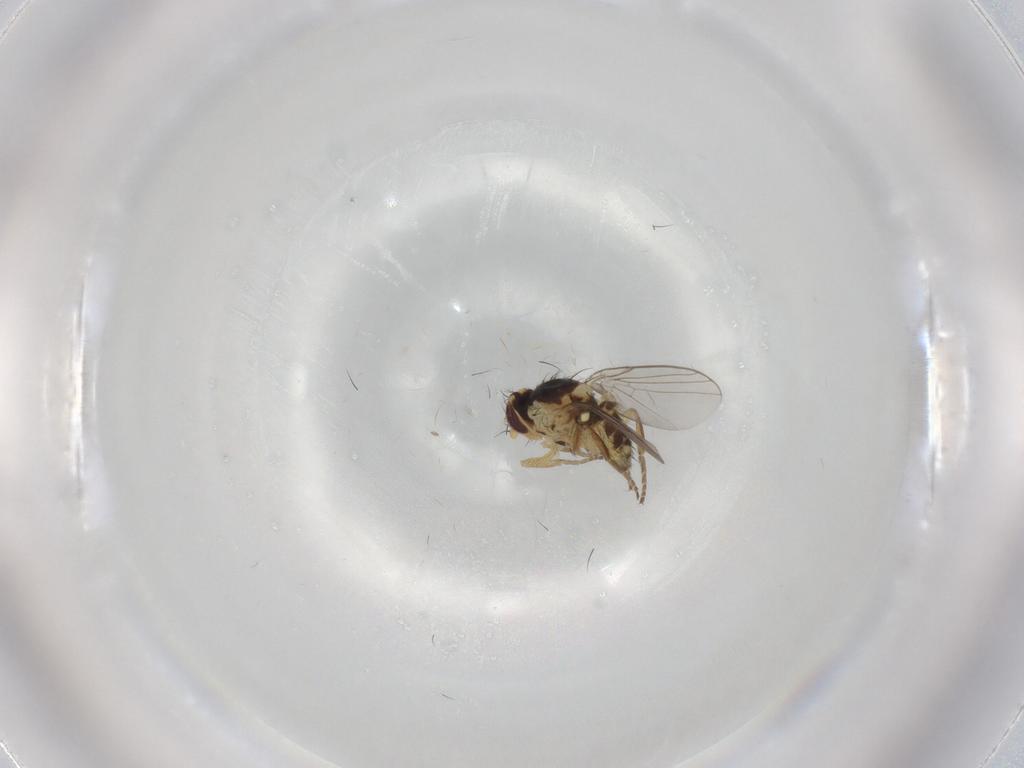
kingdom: Animalia
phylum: Arthropoda
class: Insecta
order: Diptera
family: Agromyzidae
